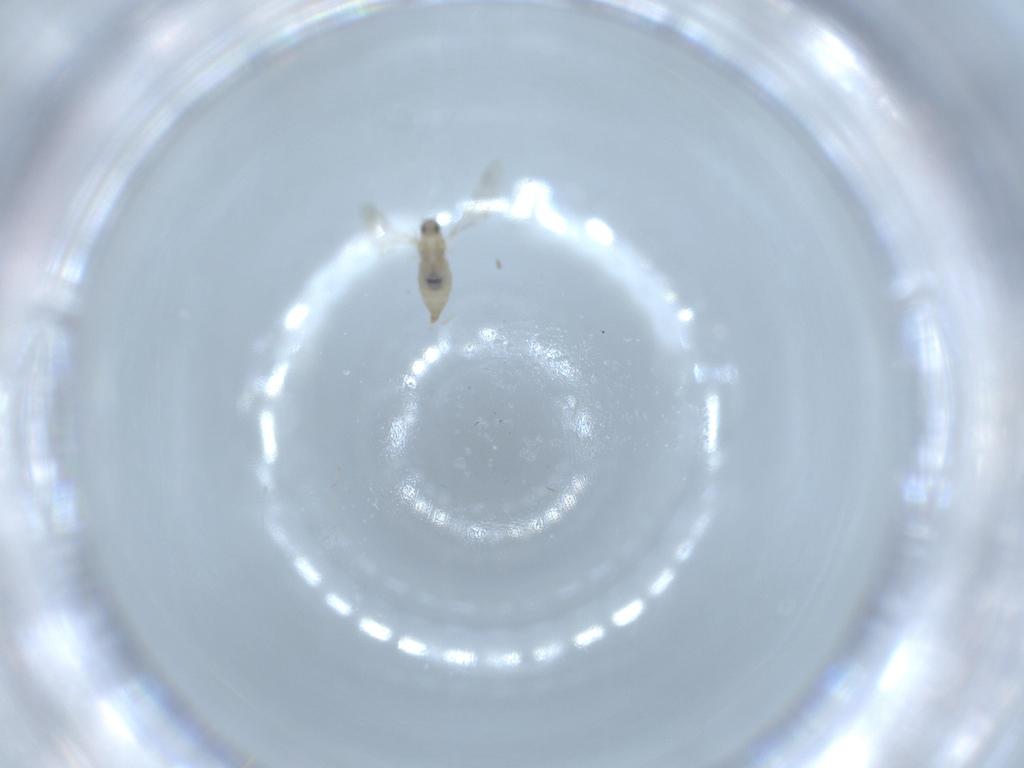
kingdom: Animalia
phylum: Arthropoda
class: Insecta
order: Diptera
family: Cecidomyiidae
